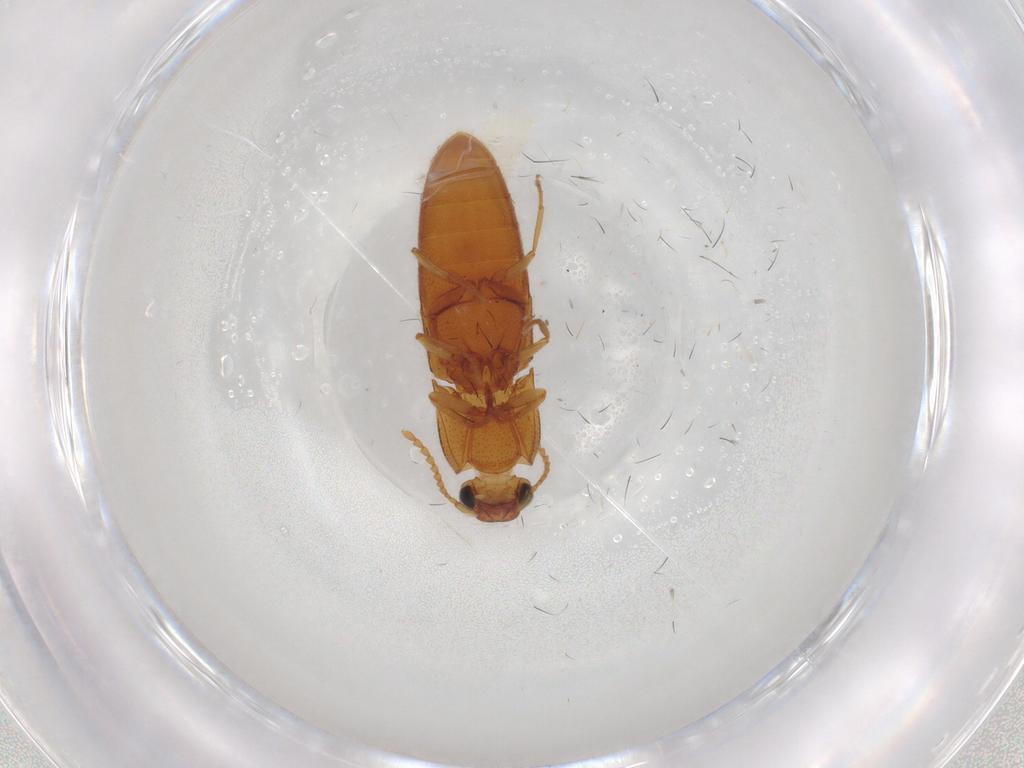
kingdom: Animalia
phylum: Arthropoda
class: Insecta
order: Coleoptera
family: Elateridae
